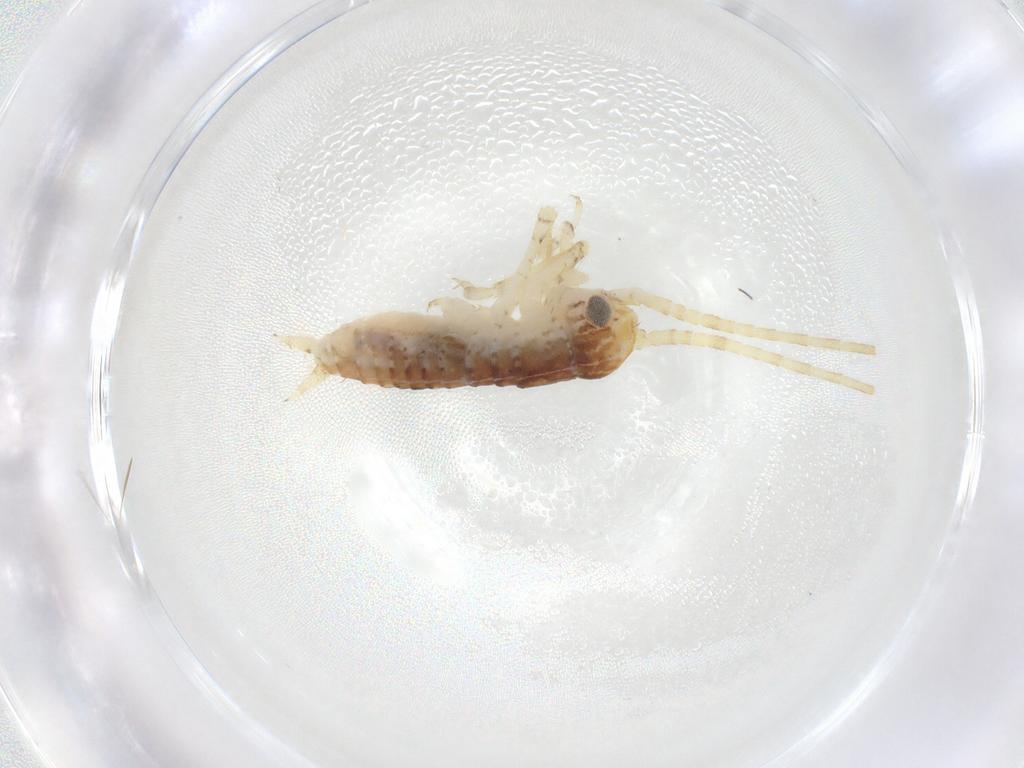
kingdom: Animalia
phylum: Arthropoda
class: Insecta
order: Orthoptera
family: Gryllidae
